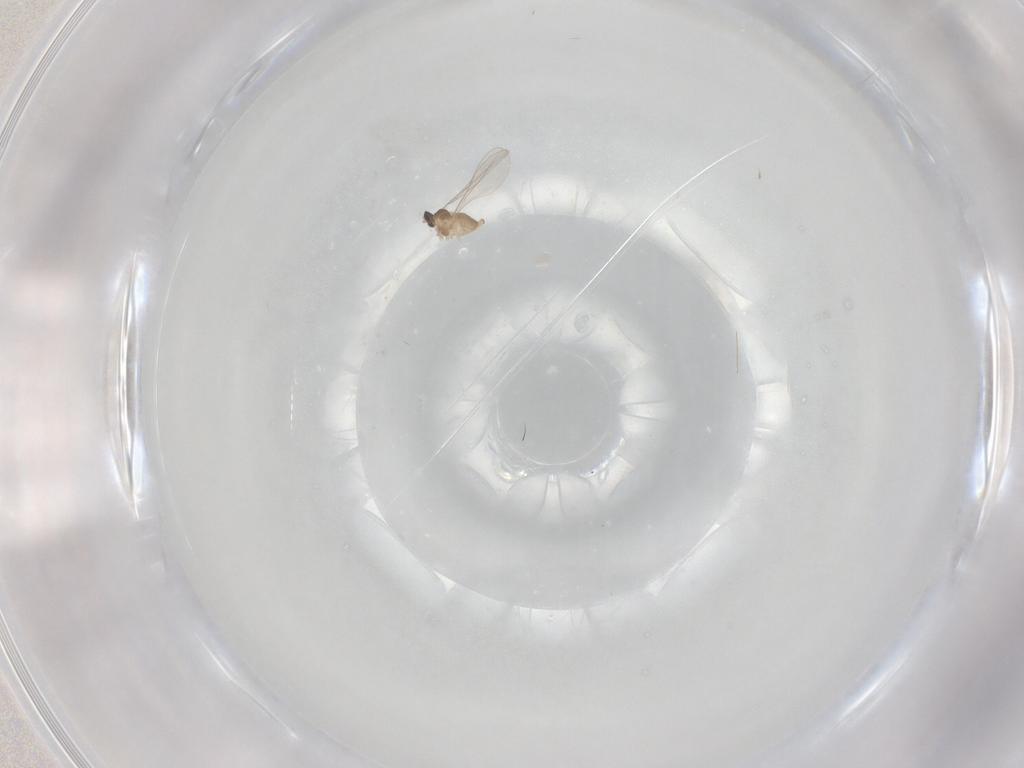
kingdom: Animalia
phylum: Arthropoda
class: Insecta
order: Diptera
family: Cecidomyiidae
